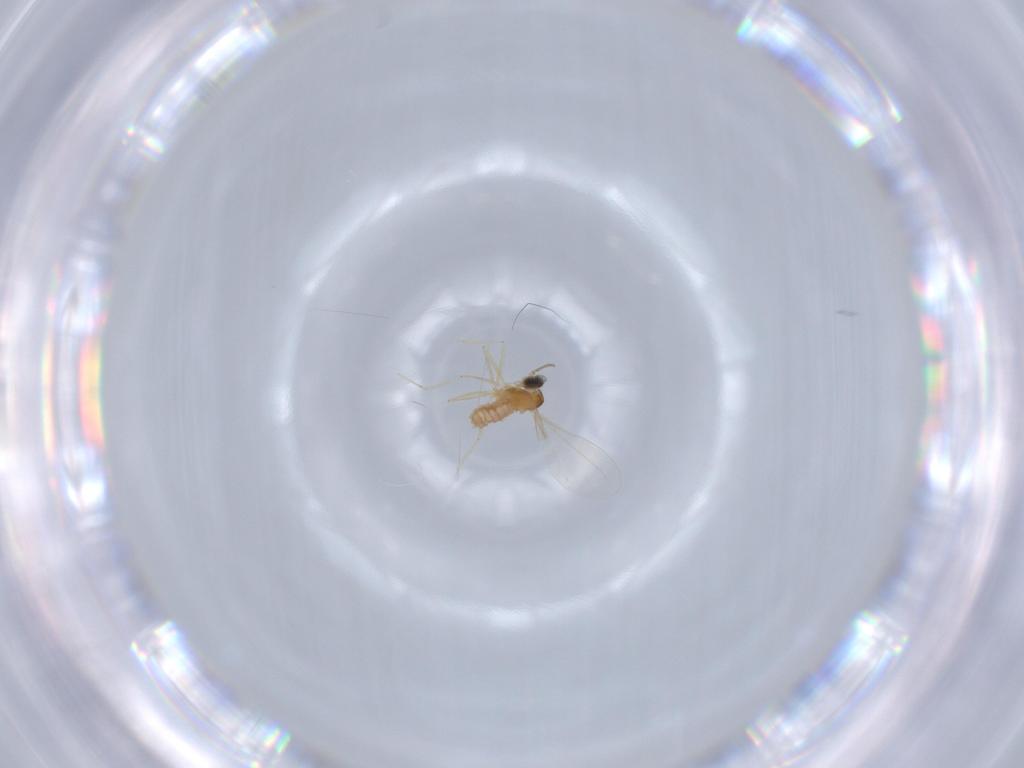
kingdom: Animalia
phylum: Arthropoda
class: Insecta
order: Diptera
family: Cecidomyiidae
